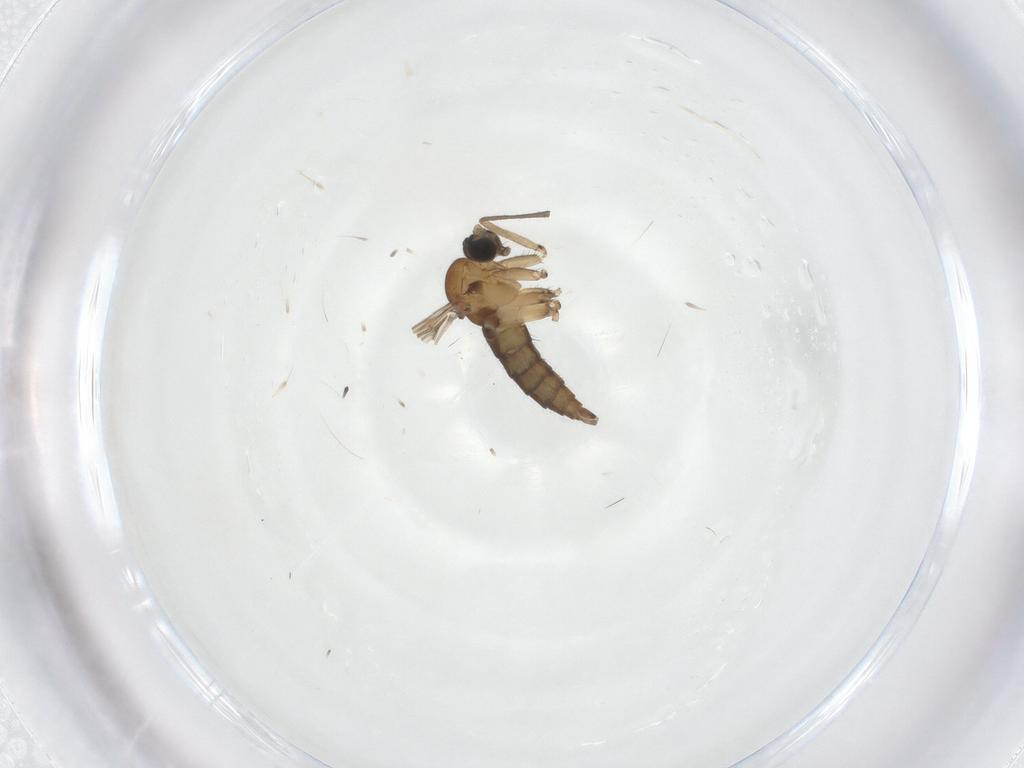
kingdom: Animalia
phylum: Arthropoda
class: Insecta
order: Diptera
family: Sciaridae
